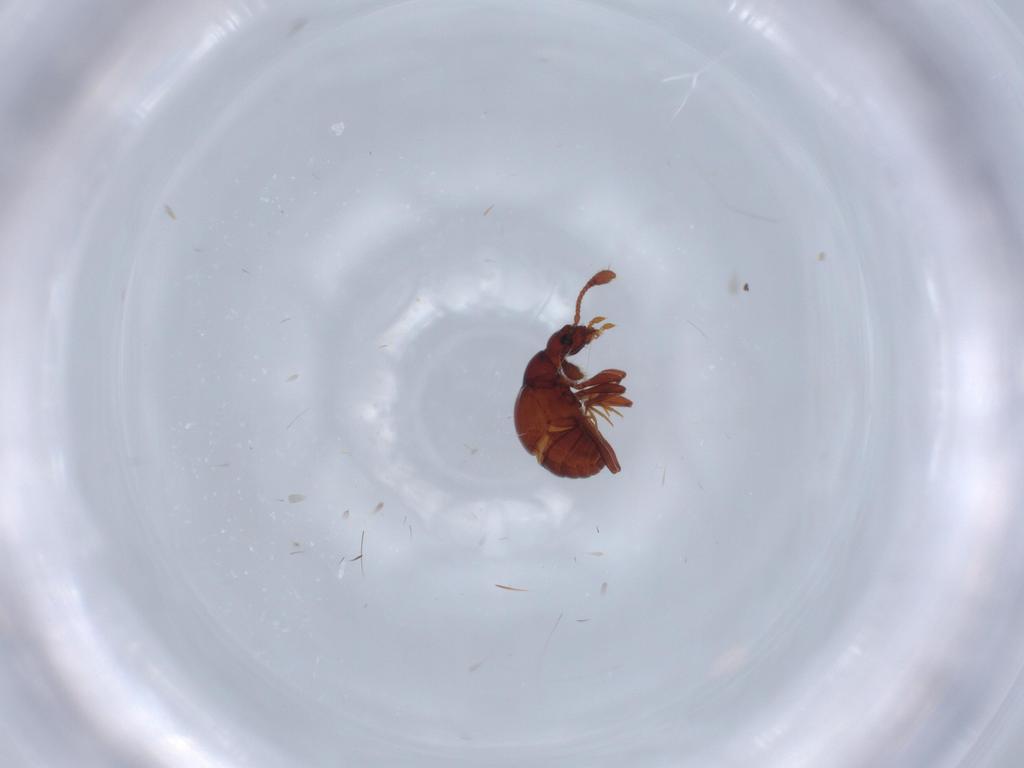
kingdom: Animalia
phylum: Arthropoda
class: Insecta
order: Coleoptera
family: Staphylinidae
